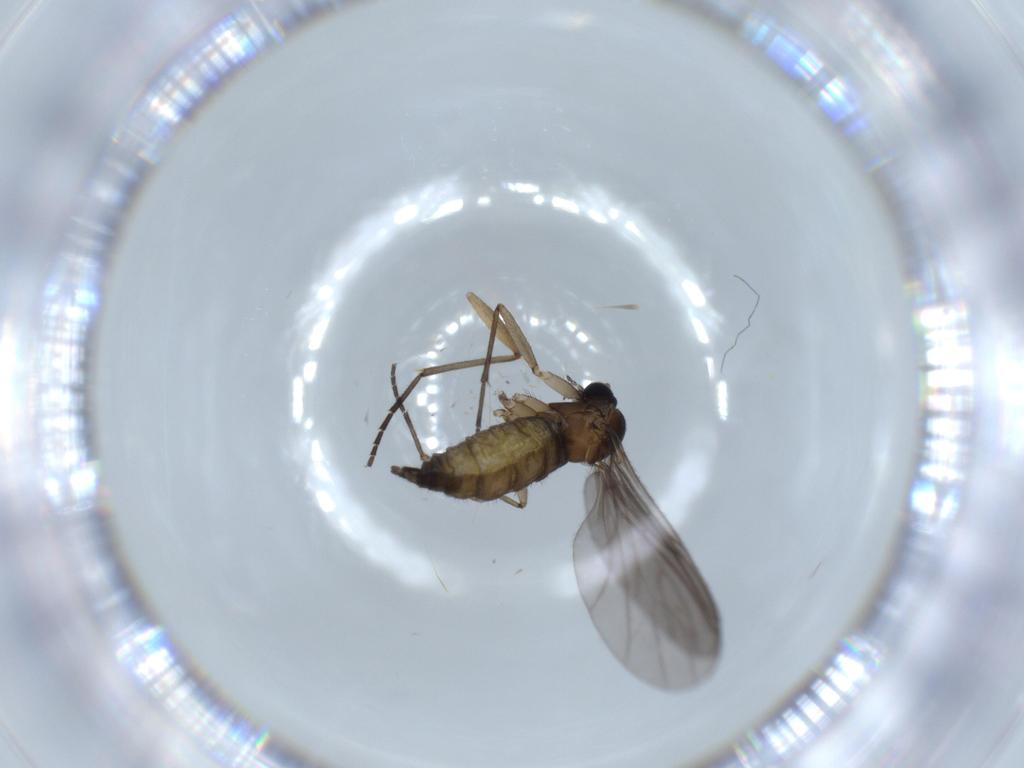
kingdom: Animalia
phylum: Arthropoda
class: Insecta
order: Diptera
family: Sciaridae
